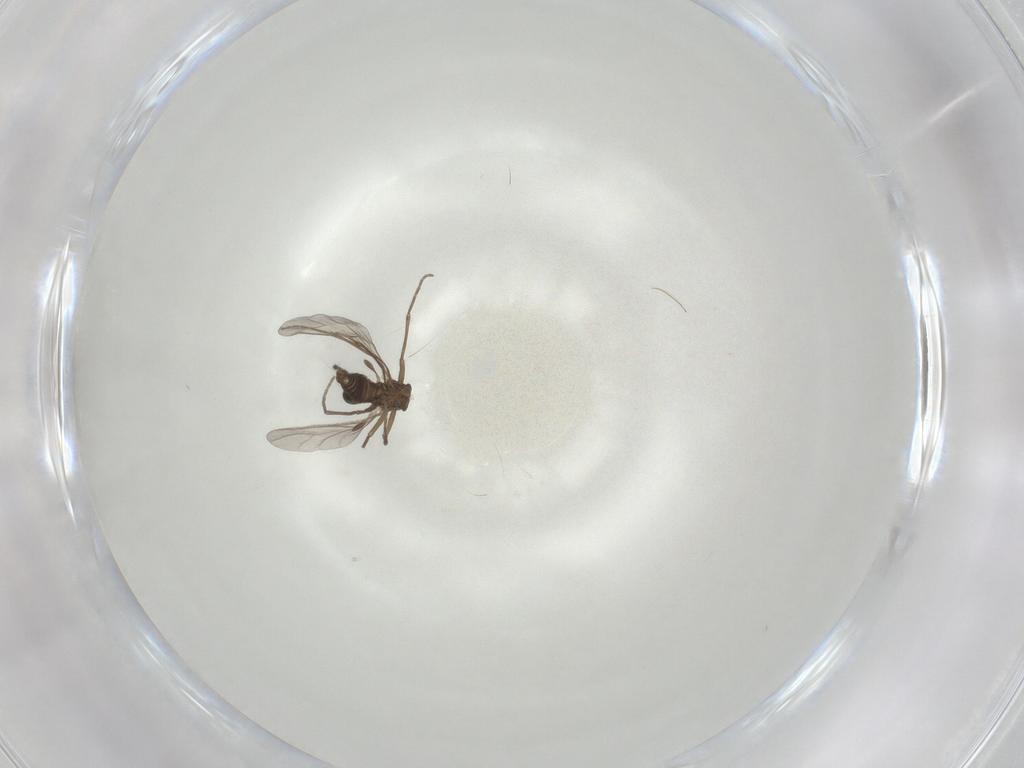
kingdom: Animalia
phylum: Arthropoda
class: Insecta
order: Diptera
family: Sciaridae
